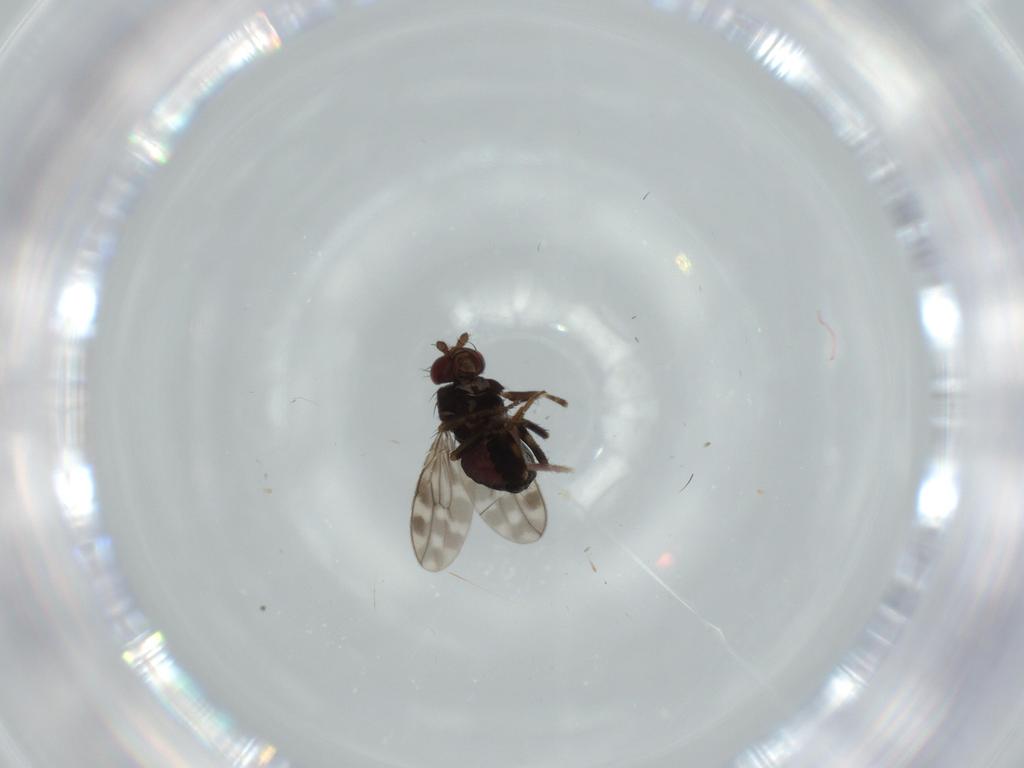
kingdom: Animalia
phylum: Arthropoda
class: Insecta
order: Diptera
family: Sphaeroceridae
